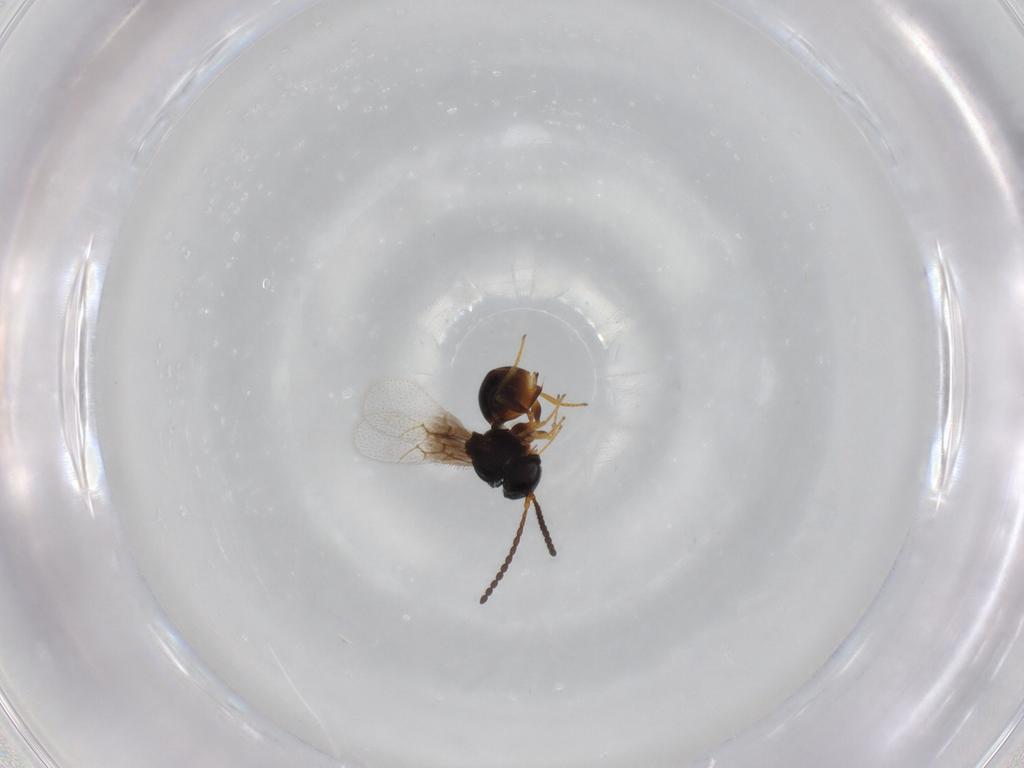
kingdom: Animalia
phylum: Arthropoda
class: Insecta
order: Hymenoptera
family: Figitidae
